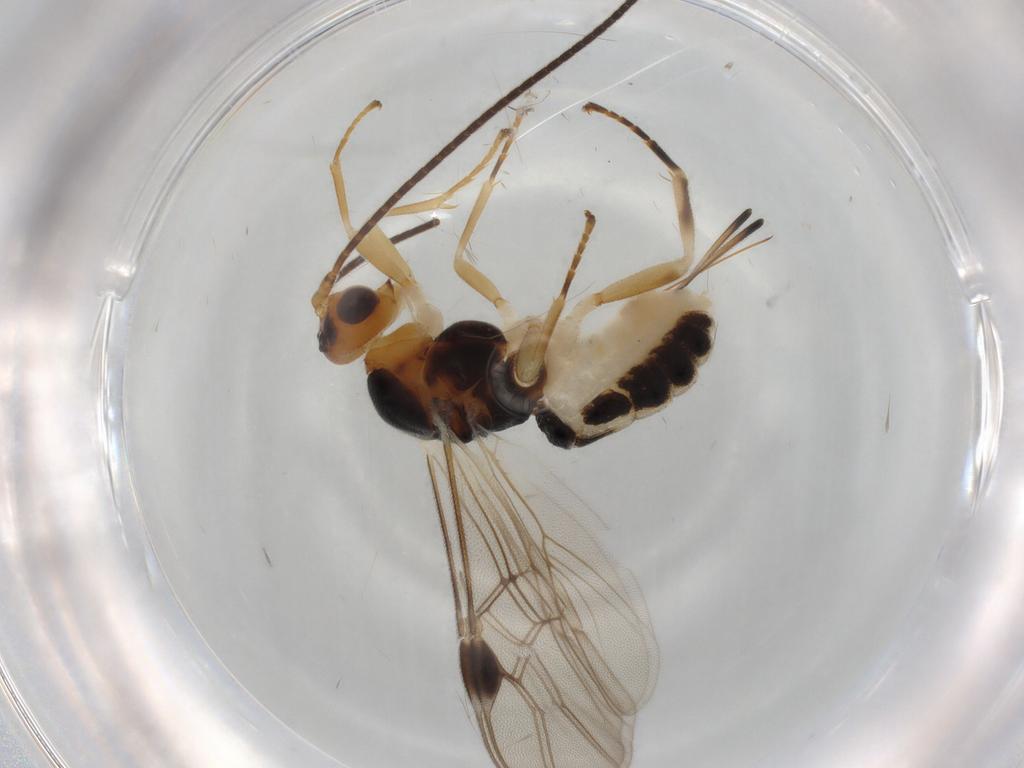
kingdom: Animalia
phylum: Arthropoda
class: Insecta
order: Hymenoptera
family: Braconidae
